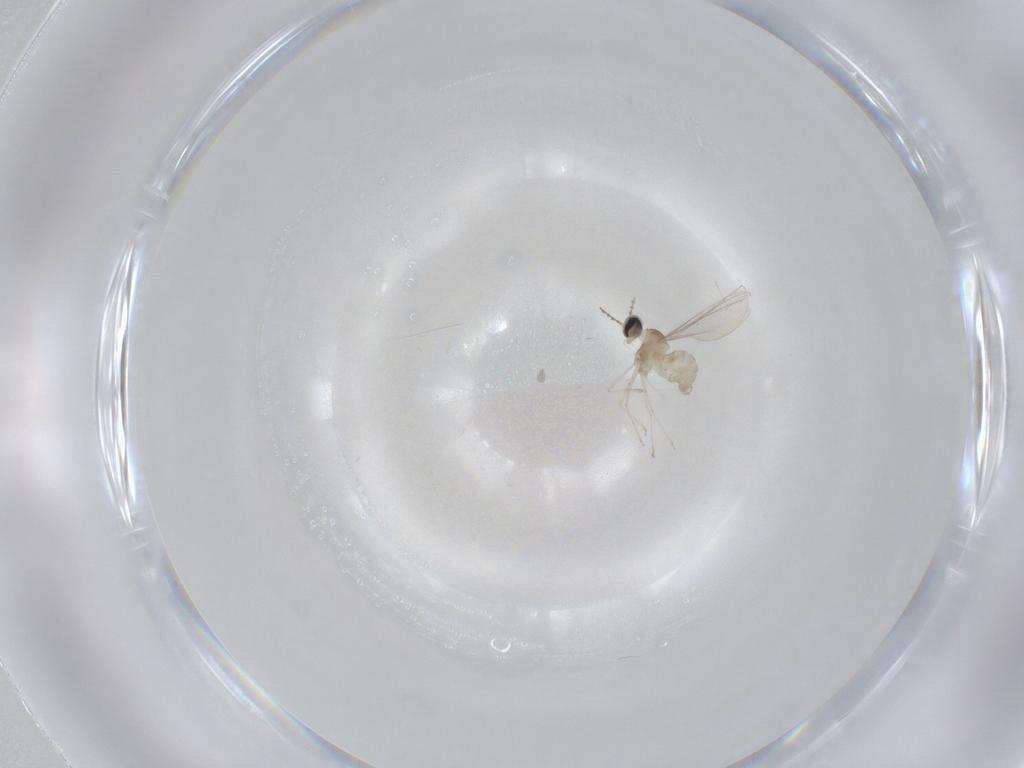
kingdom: Animalia
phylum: Arthropoda
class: Insecta
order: Diptera
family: Cecidomyiidae
